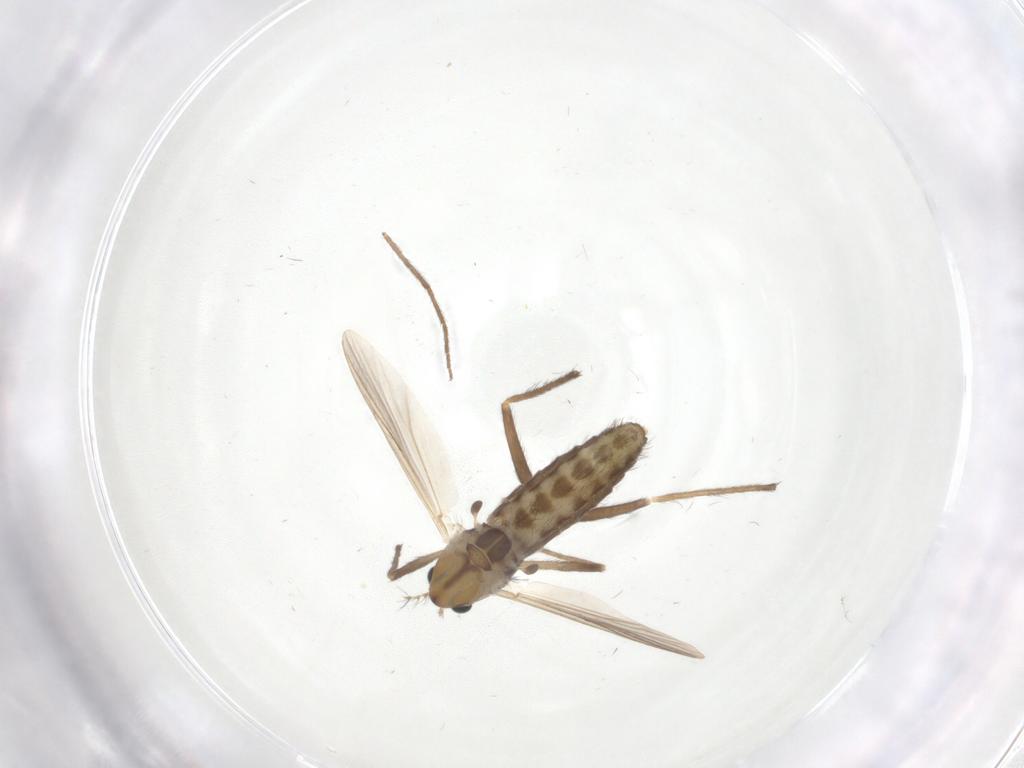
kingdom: Animalia
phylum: Arthropoda
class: Insecta
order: Diptera
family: Chironomidae
